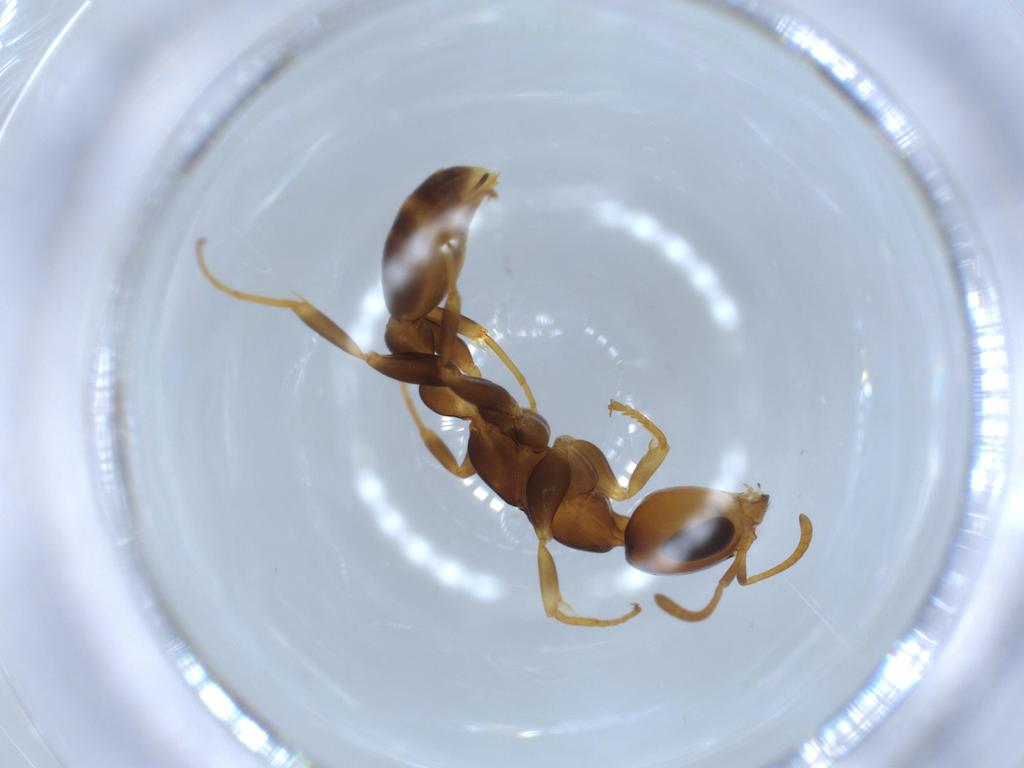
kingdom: Animalia
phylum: Arthropoda
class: Insecta
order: Hymenoptera
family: Formicidae
